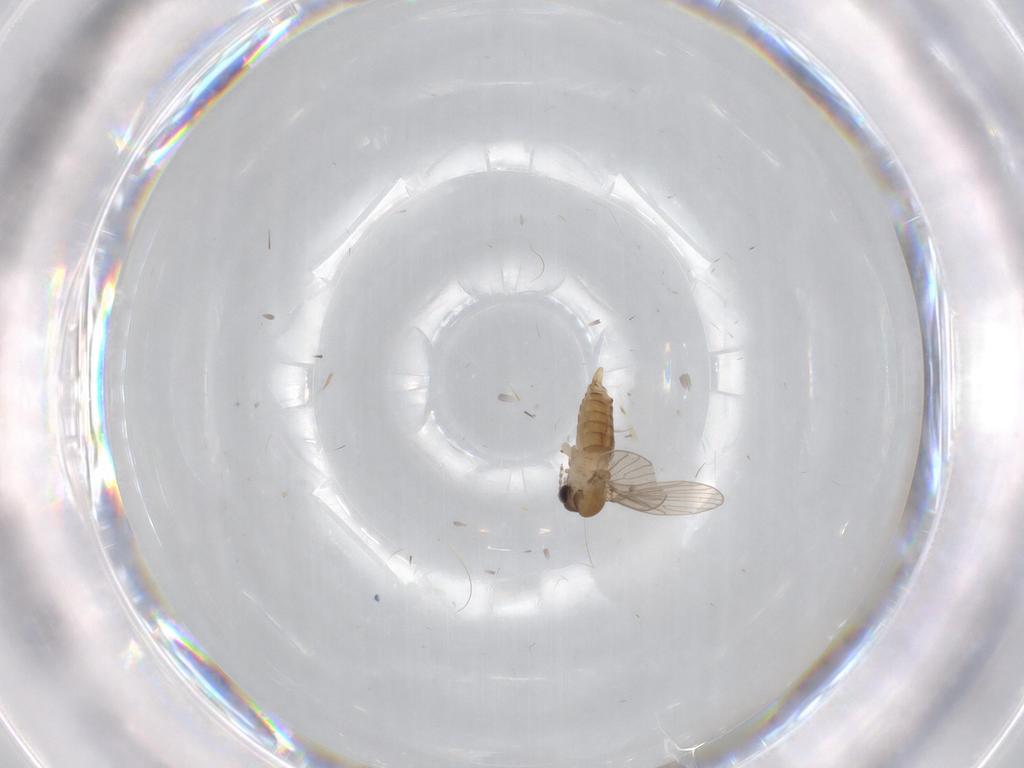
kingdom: Animalia
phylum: Arthropoda
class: Insecta
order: Diptera
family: Psychodidae
